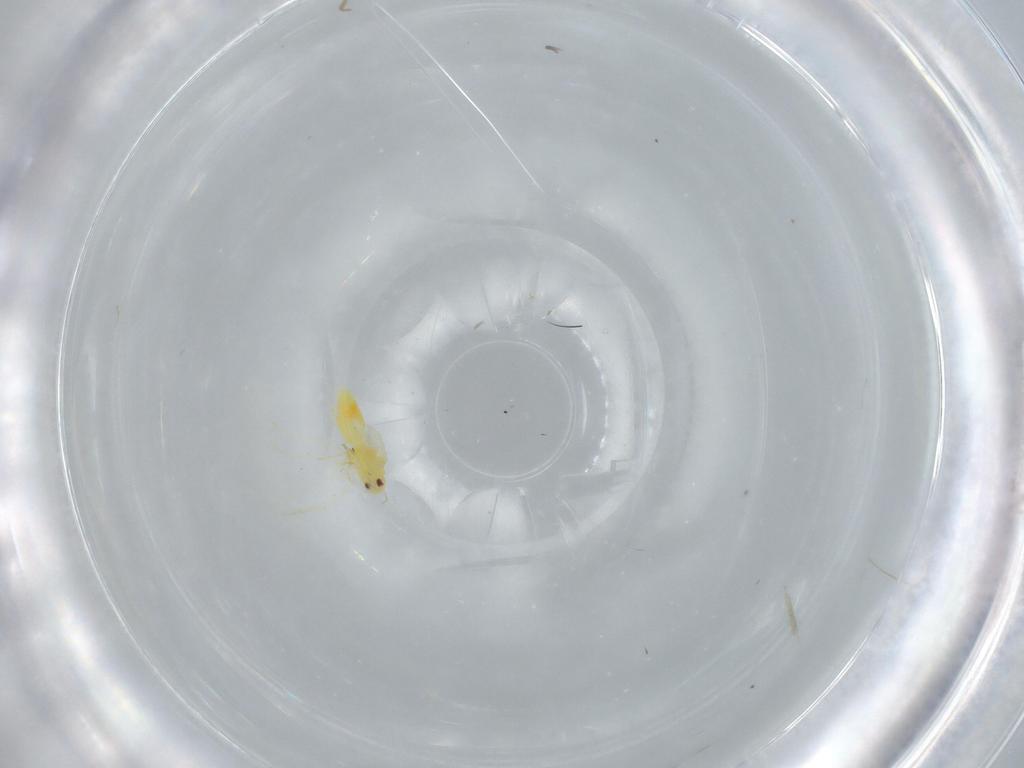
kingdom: Animalia
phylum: Arthropoda
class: Insecta
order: Hemiptera
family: Aleyrodidae
